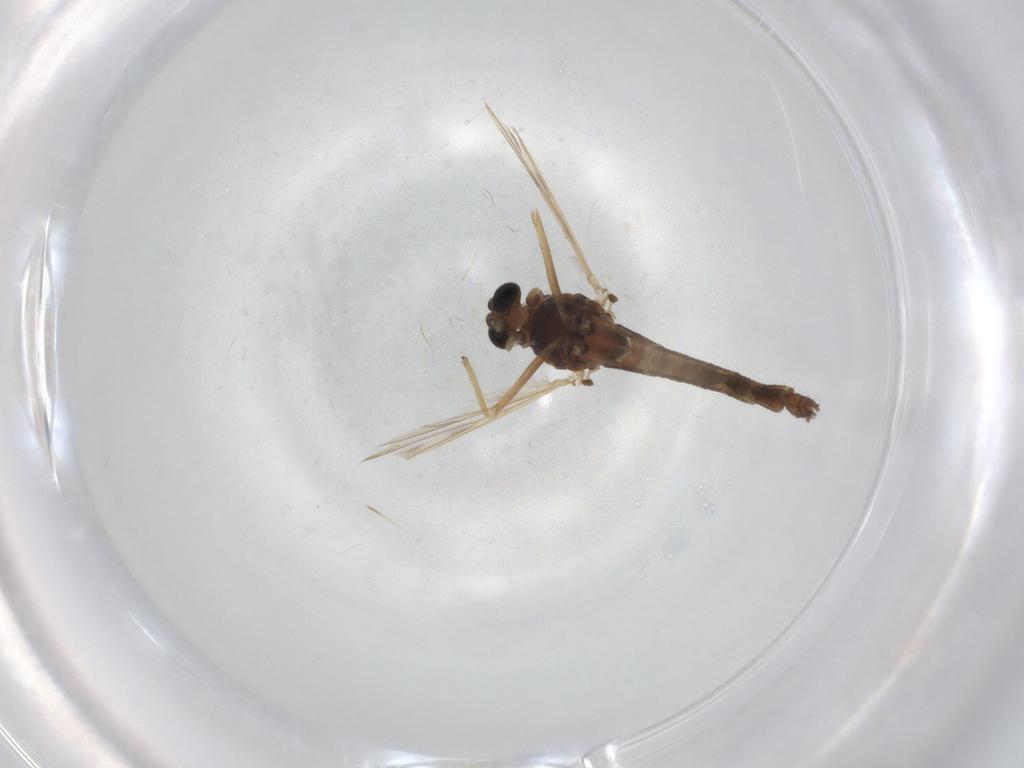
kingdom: Animalia
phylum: Arthropoda
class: Insecta
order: Diptera
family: Chironomidae
